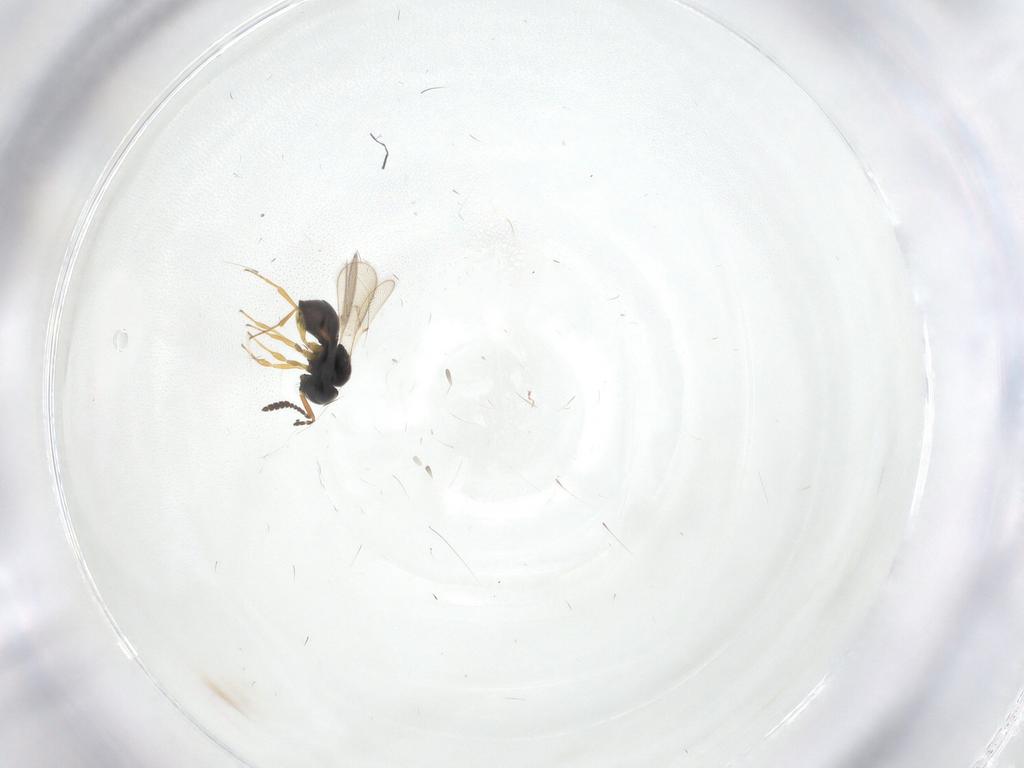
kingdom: Animalia
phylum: Arthropoda
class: Insecta
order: Hymenoptera
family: Scelionidae
